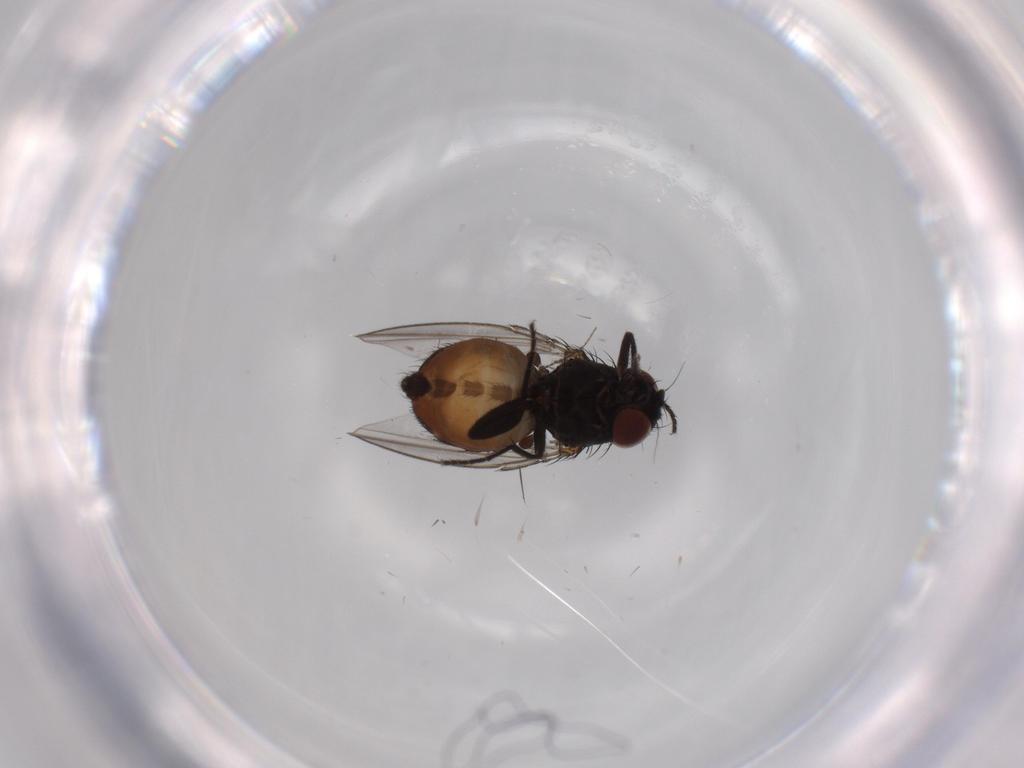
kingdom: Animalia
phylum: Arthropoda
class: Insecta
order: Diptera
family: Milichiidae
